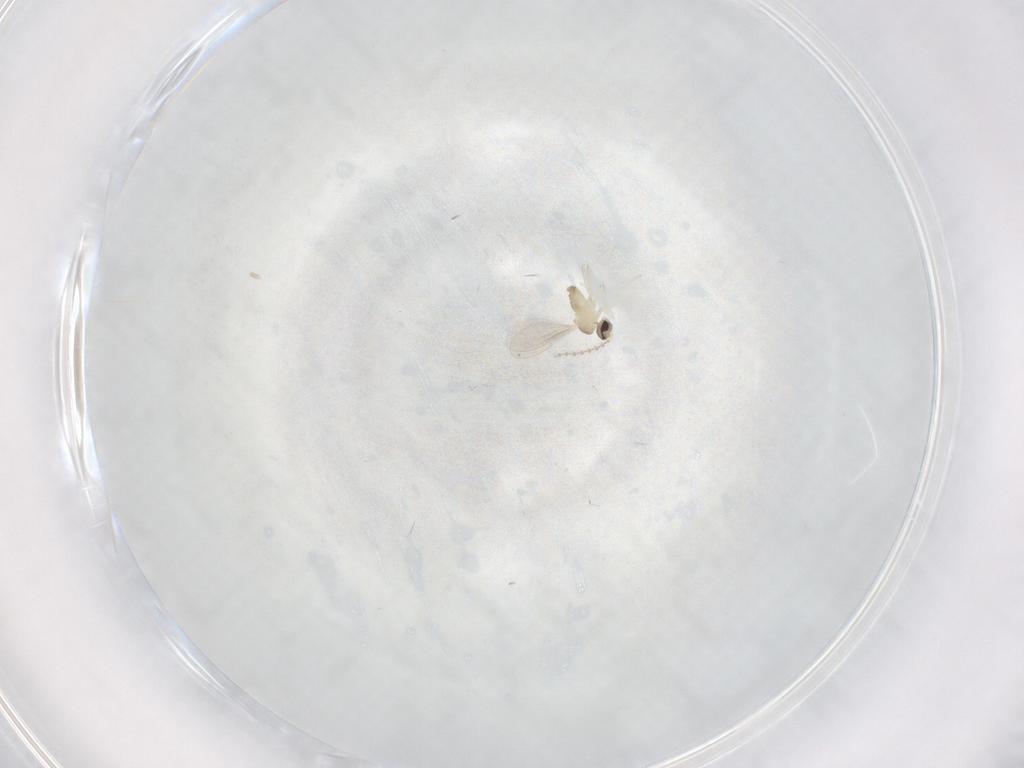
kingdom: Animalia
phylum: Arthropoda
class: Insecta
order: Diptera
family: Cecidomyiidae
